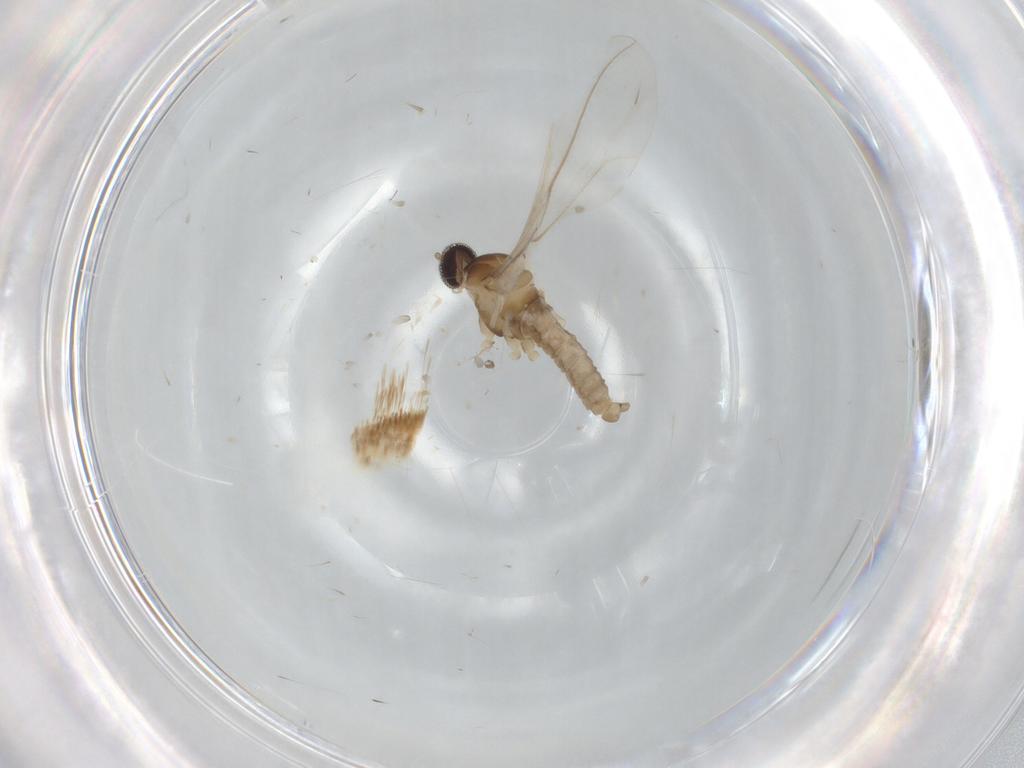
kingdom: Animalia
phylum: Arthropoda
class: Insecta
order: Diptera
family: Cecidomyiidae
